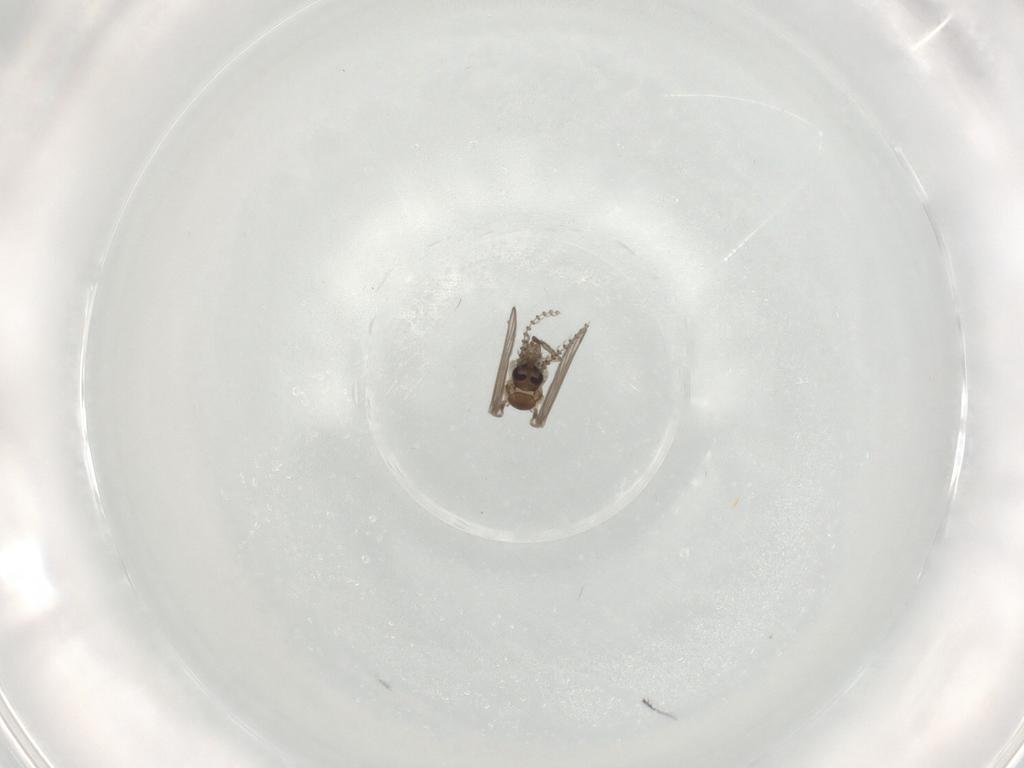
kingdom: Animalia
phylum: Arthropoda
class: Insecta
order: Diptera
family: Psychodidae
